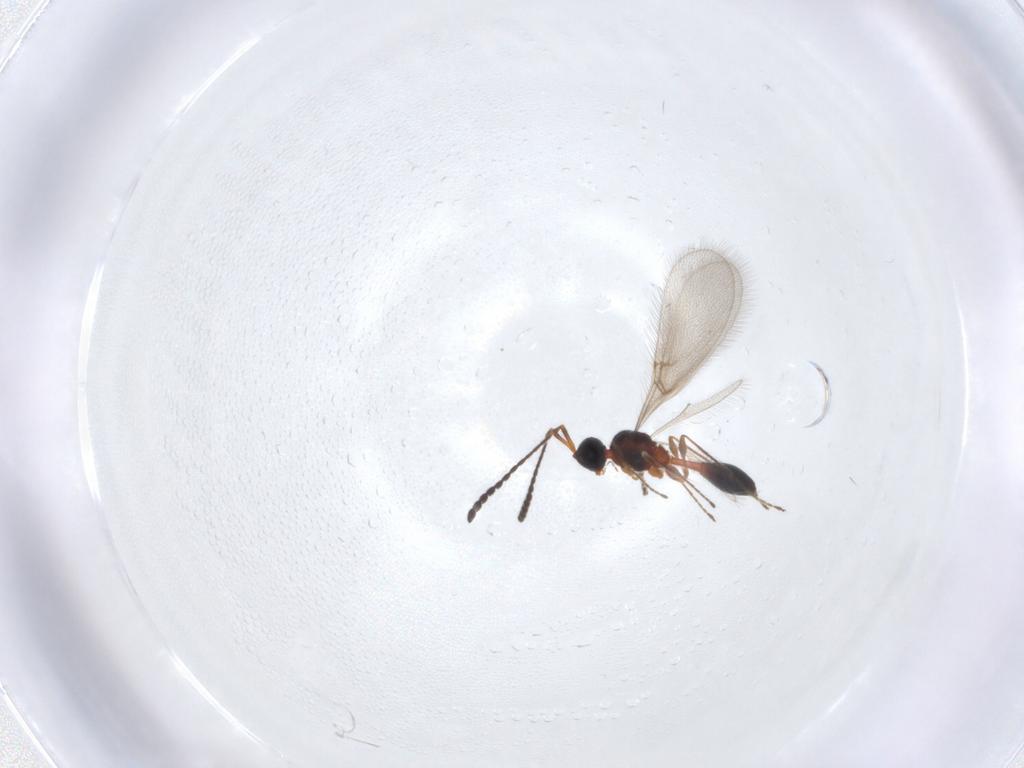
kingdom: Animalia
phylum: Arthropoda
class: Insecta
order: Hymenoptera
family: Diapriidae
